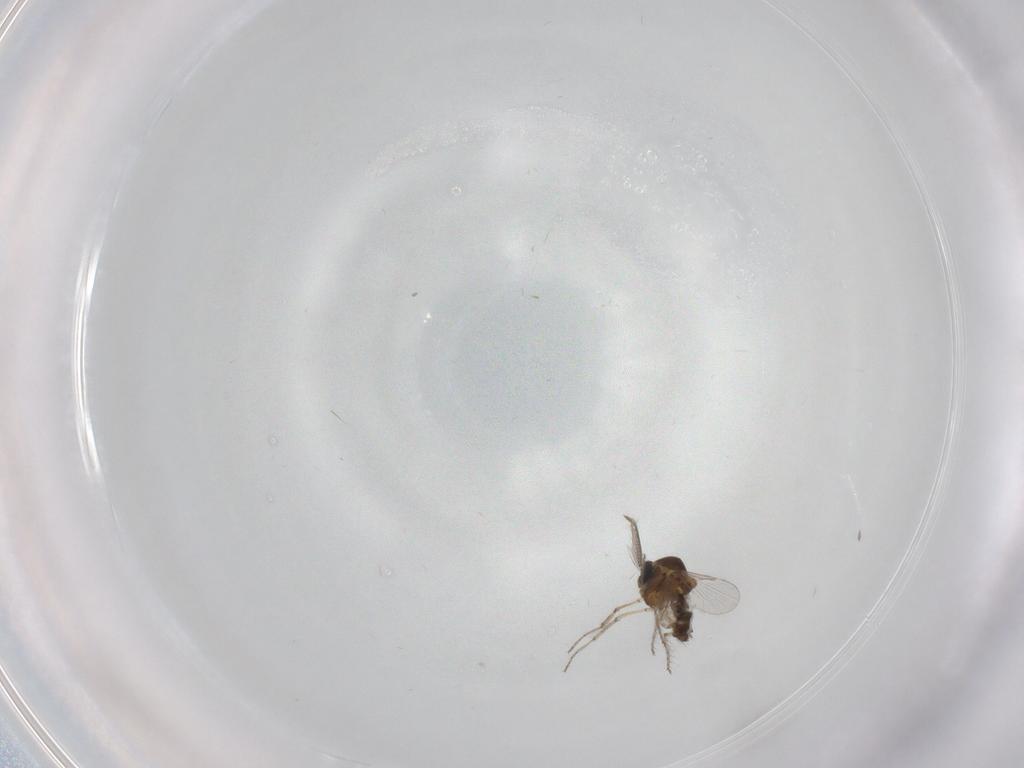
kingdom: Animalia
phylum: Arthropoda
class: Insecta
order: Diptera
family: Ceratopogonidae
